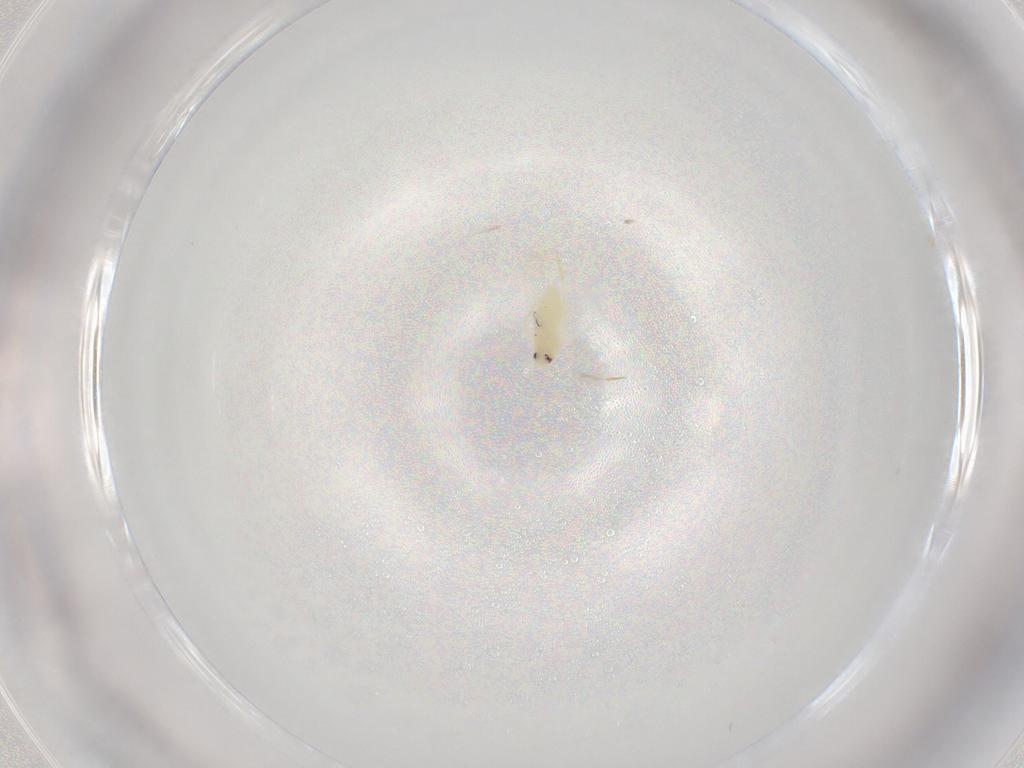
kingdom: Animalia
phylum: Arthropoda
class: Insecta
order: Hemiptera
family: Aleyrodidae
